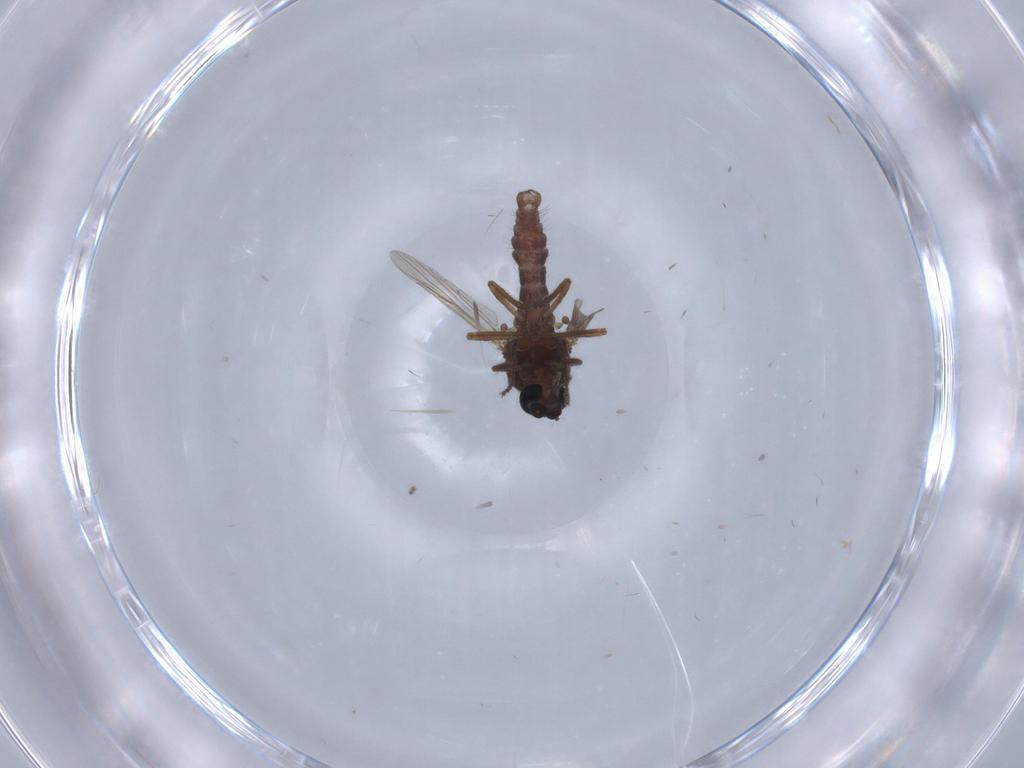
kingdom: Animalia
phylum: Arthropoda
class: Insecta
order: Diptera
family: Ceratopogonidae
